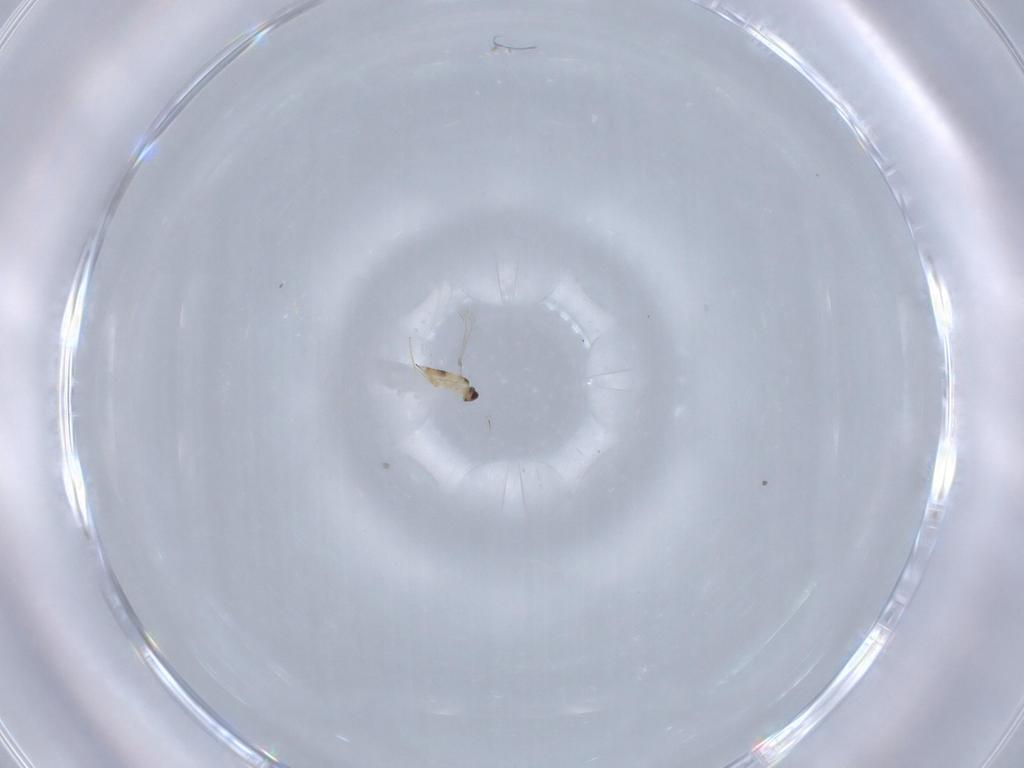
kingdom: Animalia
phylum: Arthropoda
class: Insecta
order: Hymenoptera
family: Mymaridae
